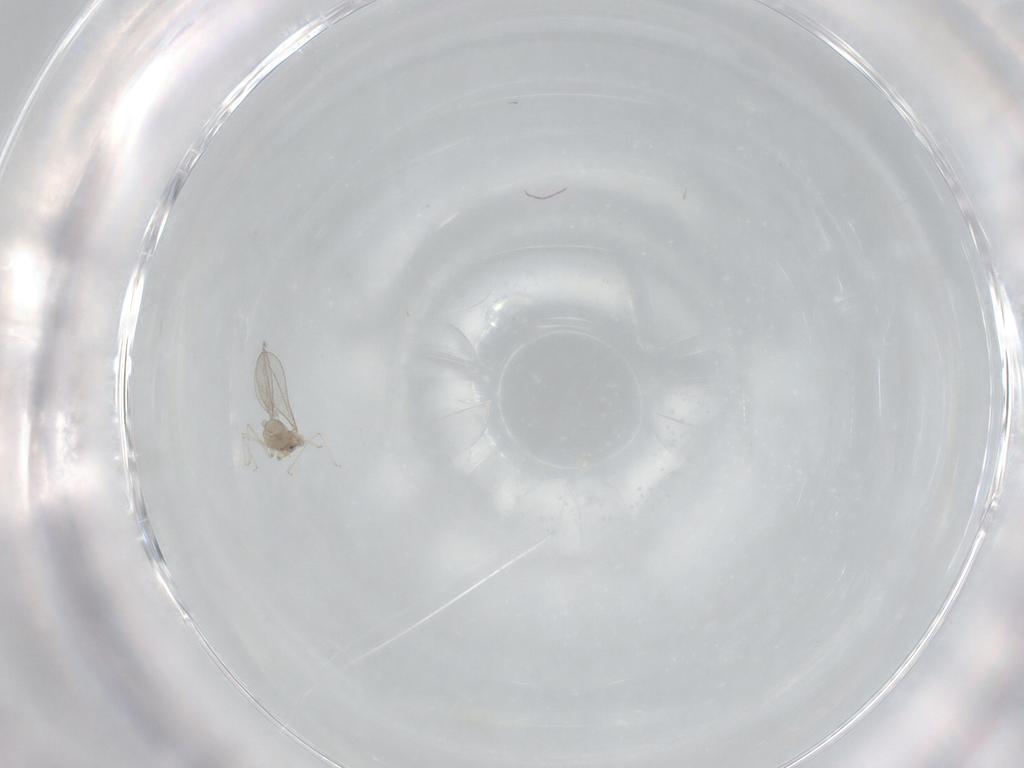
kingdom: Animalia
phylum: Arthropoda
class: Insecta
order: Diptera
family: Cecidomyiidae
